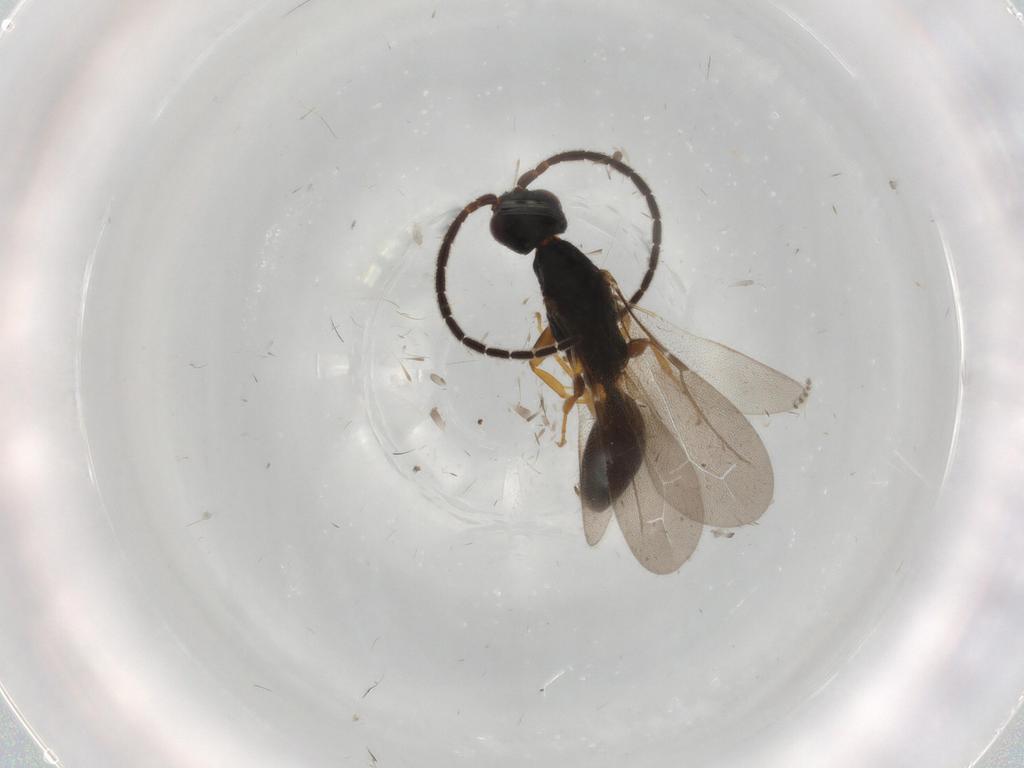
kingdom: Animalia
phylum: Arthropoda
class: Insecta
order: Hymenoptera
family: Bethylidae
